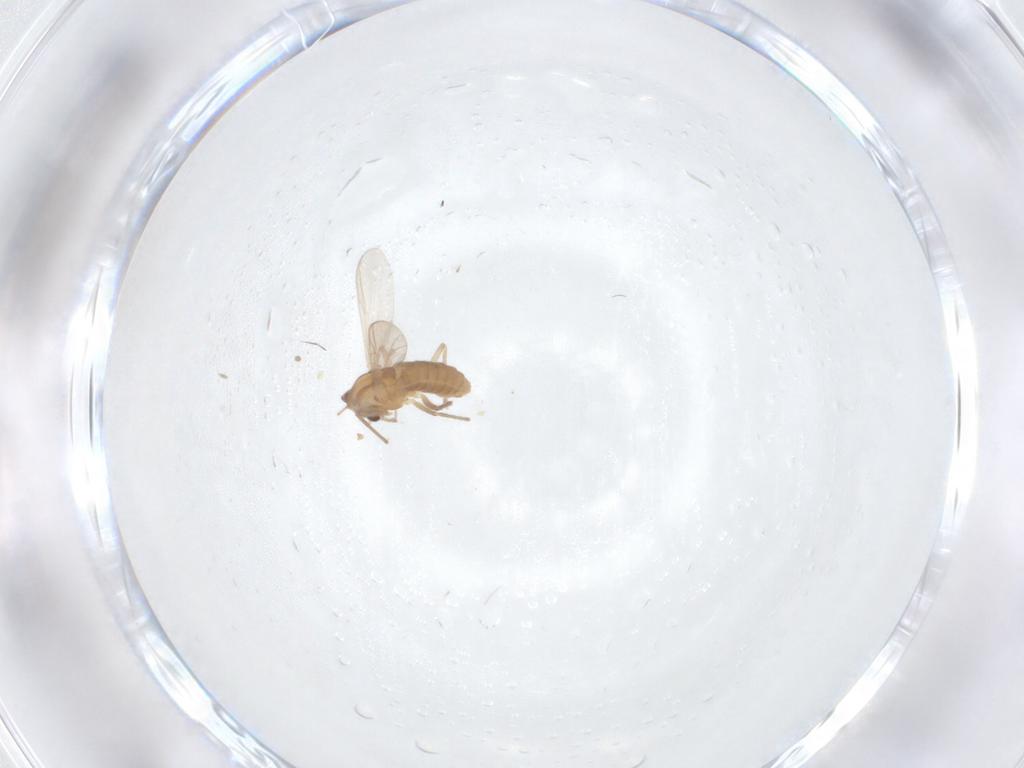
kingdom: Animalia
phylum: Arthropoda
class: Insecta
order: Diptera
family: Chironomidae
